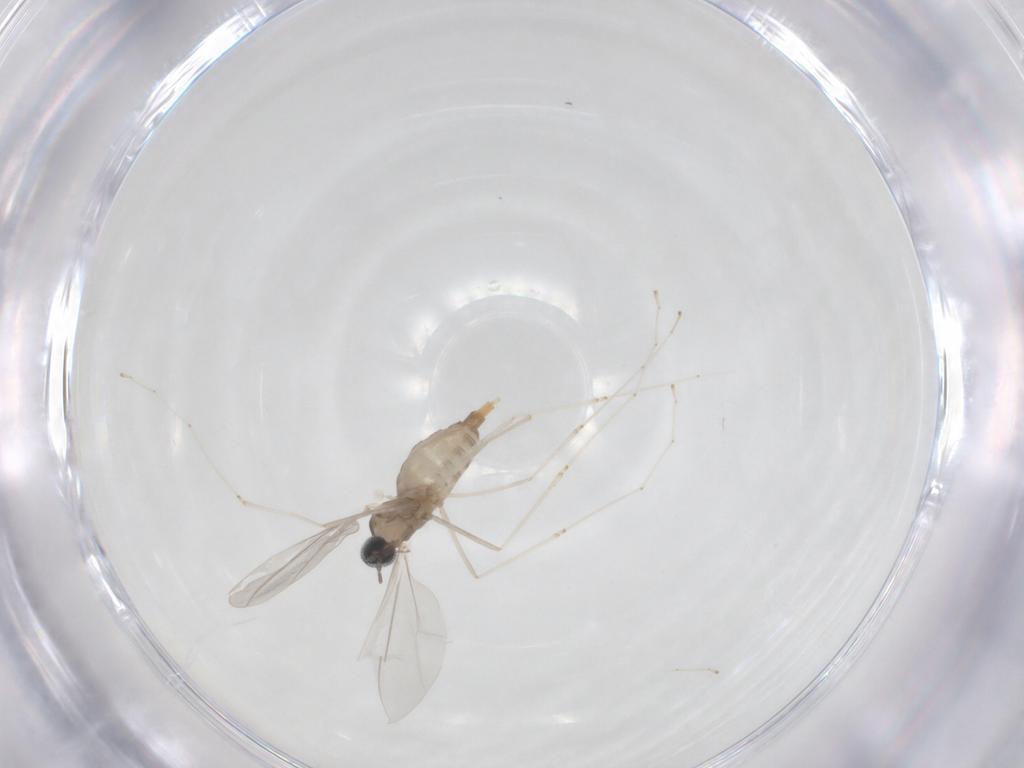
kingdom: Animalia
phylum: Arthropoda
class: Insecta
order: Diptera
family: Cecidomyiidae
